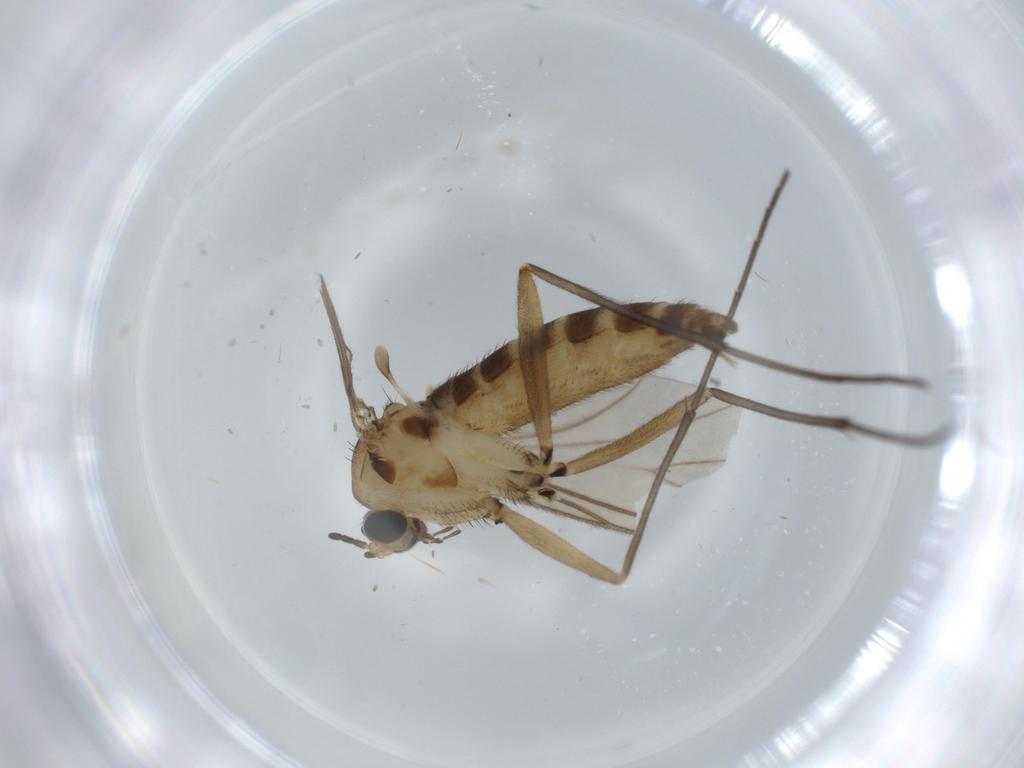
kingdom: Animalia
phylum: Arthropoda
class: Insecta
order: Diptera
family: Sciaridae
